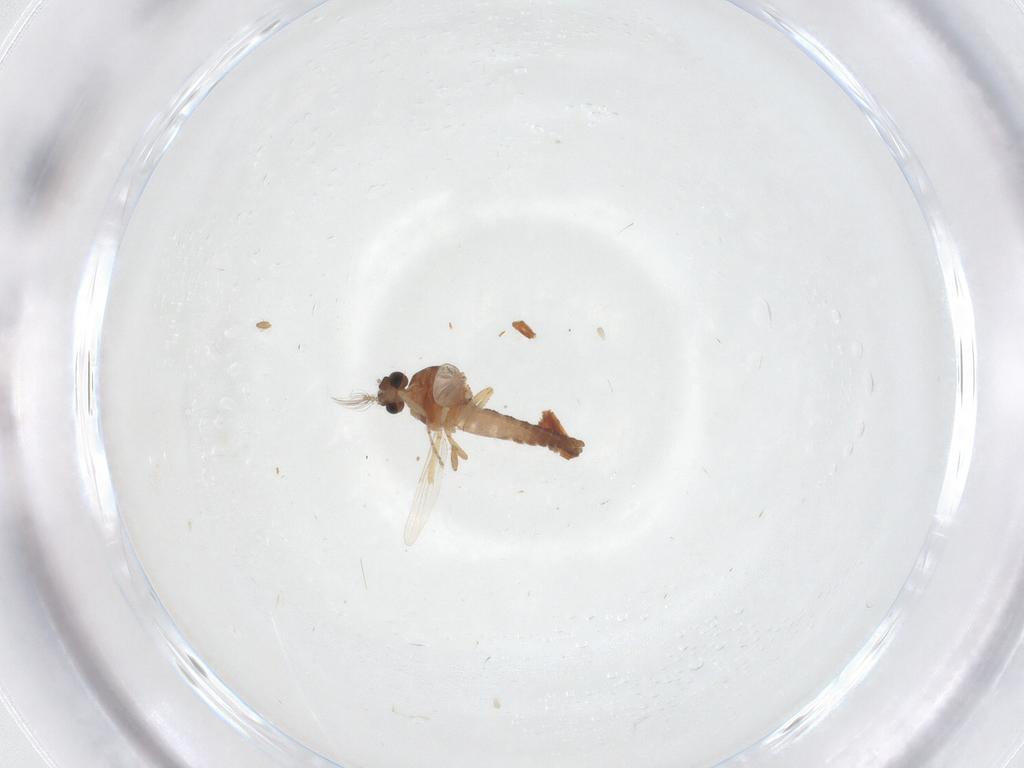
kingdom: Animalia
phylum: Arthropoda
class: Insecta
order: Diptera
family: Ceratopogonidae
